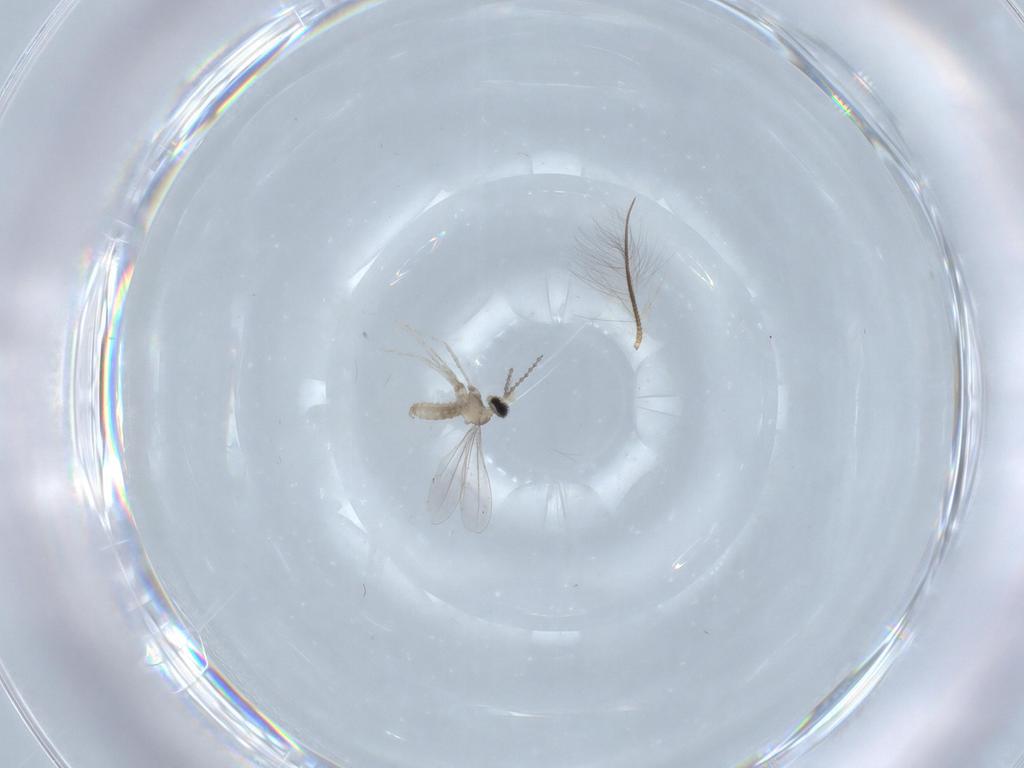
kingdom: Animalia
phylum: Arthropoda
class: Insecta
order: Diptera
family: Chironomidae
